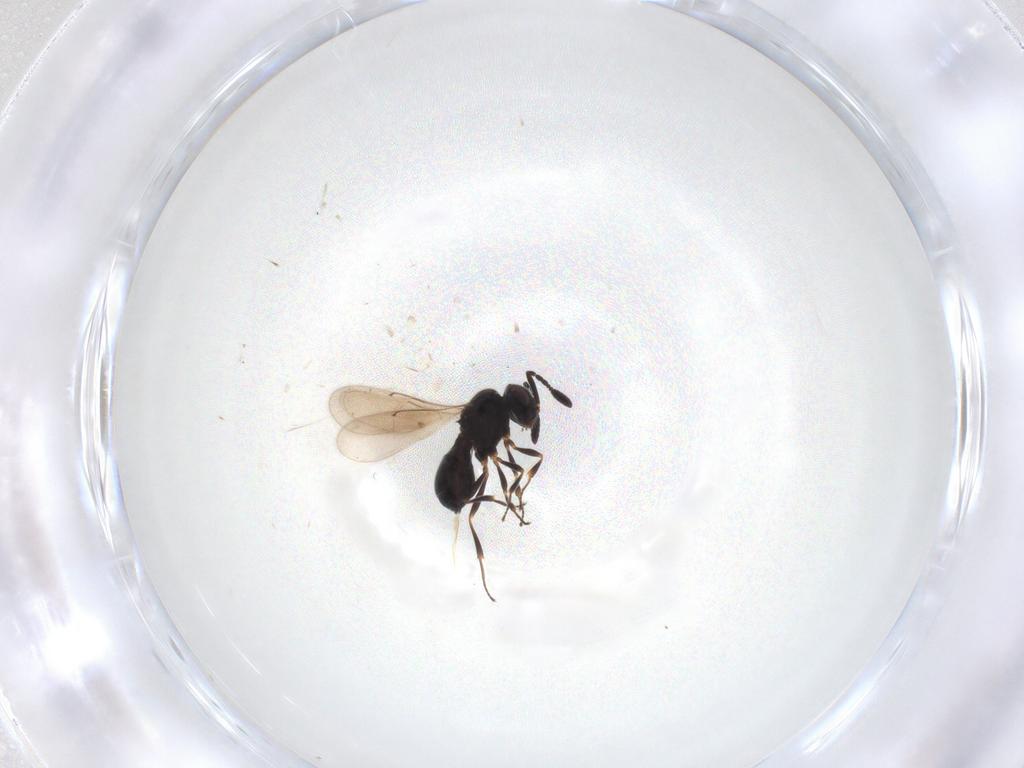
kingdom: Animalia
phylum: Arthropoda
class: Insecta
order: Hymenoptera
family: Scelionidae
